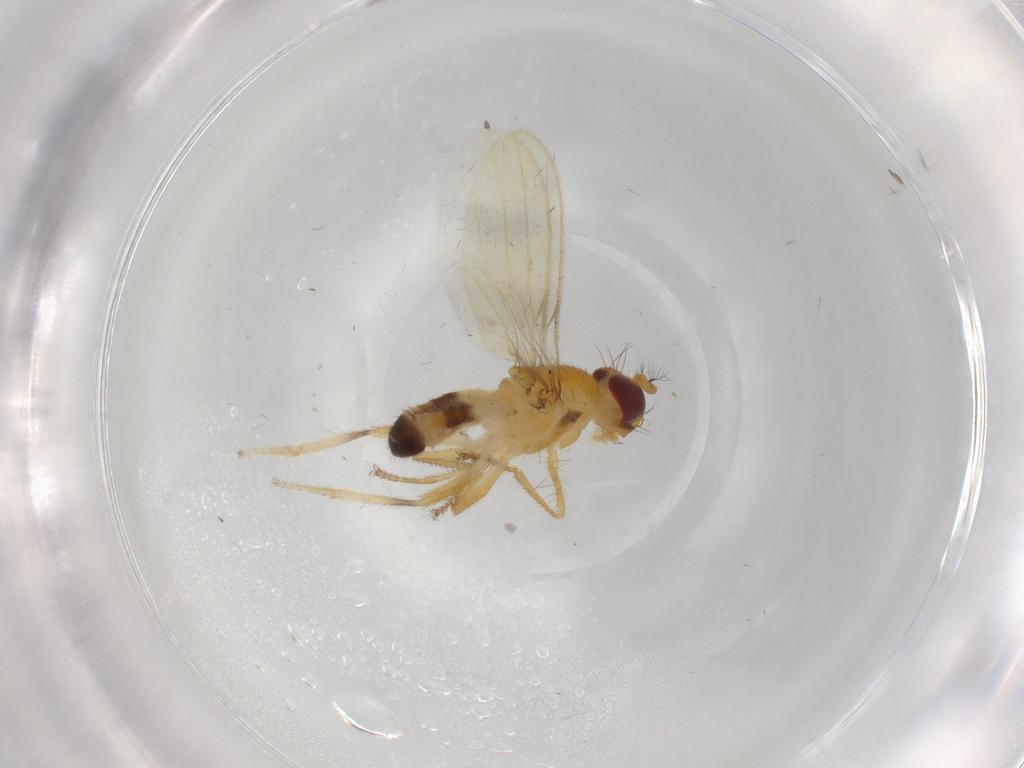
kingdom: Animalia
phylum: Arthropoda
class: Insecta
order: Diptera
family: Periscelididae
